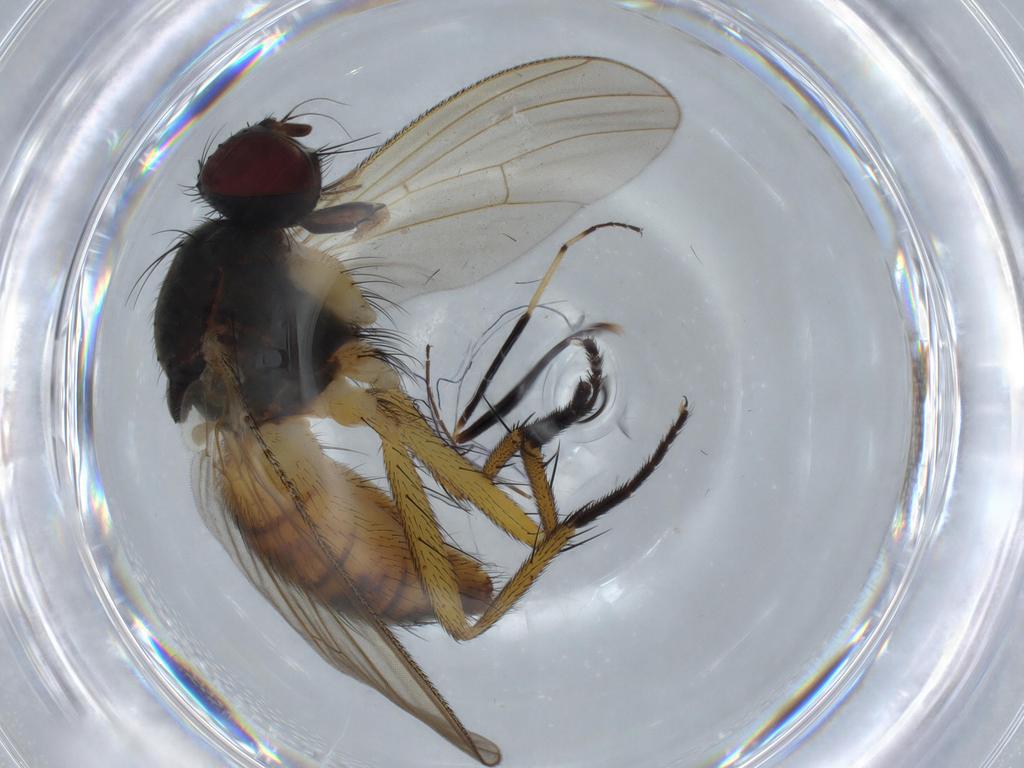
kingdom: Animalia
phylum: Arthropoda
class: Insecta
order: Diptera
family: Muscidae
